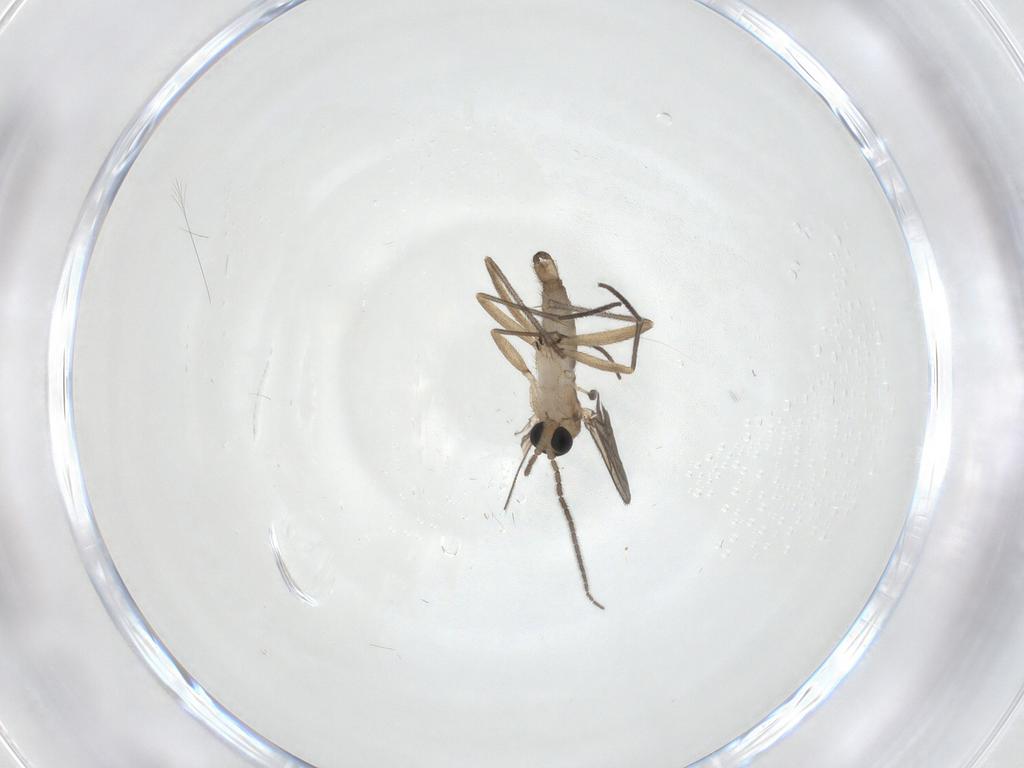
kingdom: Animalia
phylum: Arthropoda
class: Insecta
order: Diptera
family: Sciaridae
